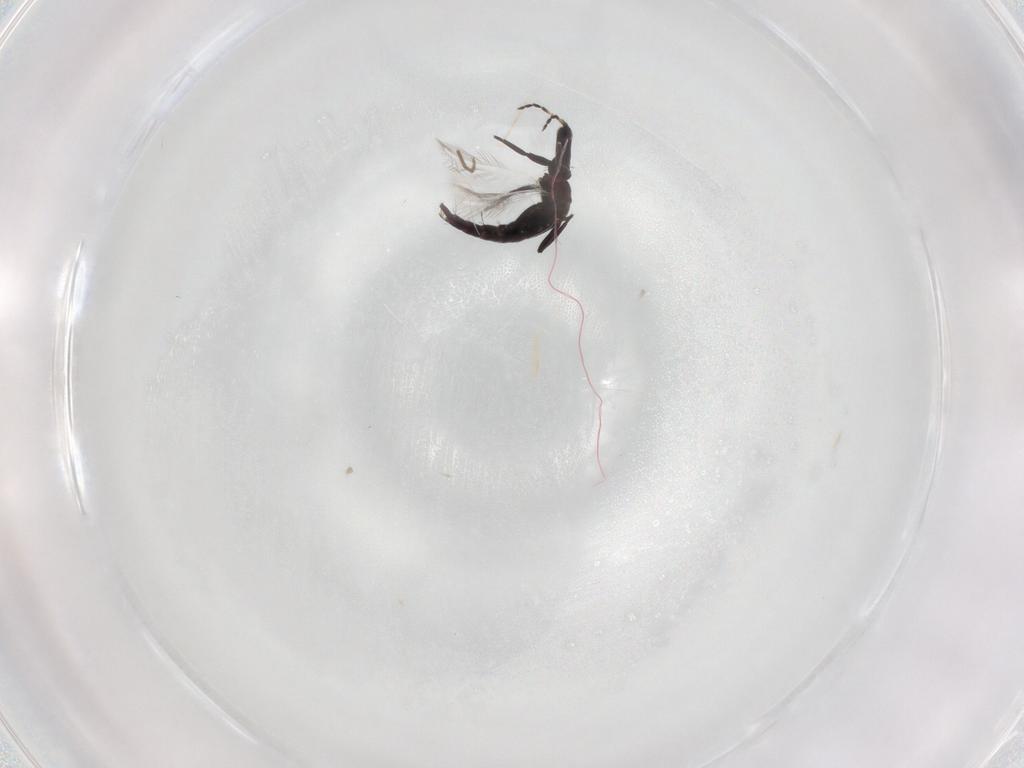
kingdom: Animalia
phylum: Arthropoda
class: Insecta
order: Thysanoptera
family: Phlaeothripidae
